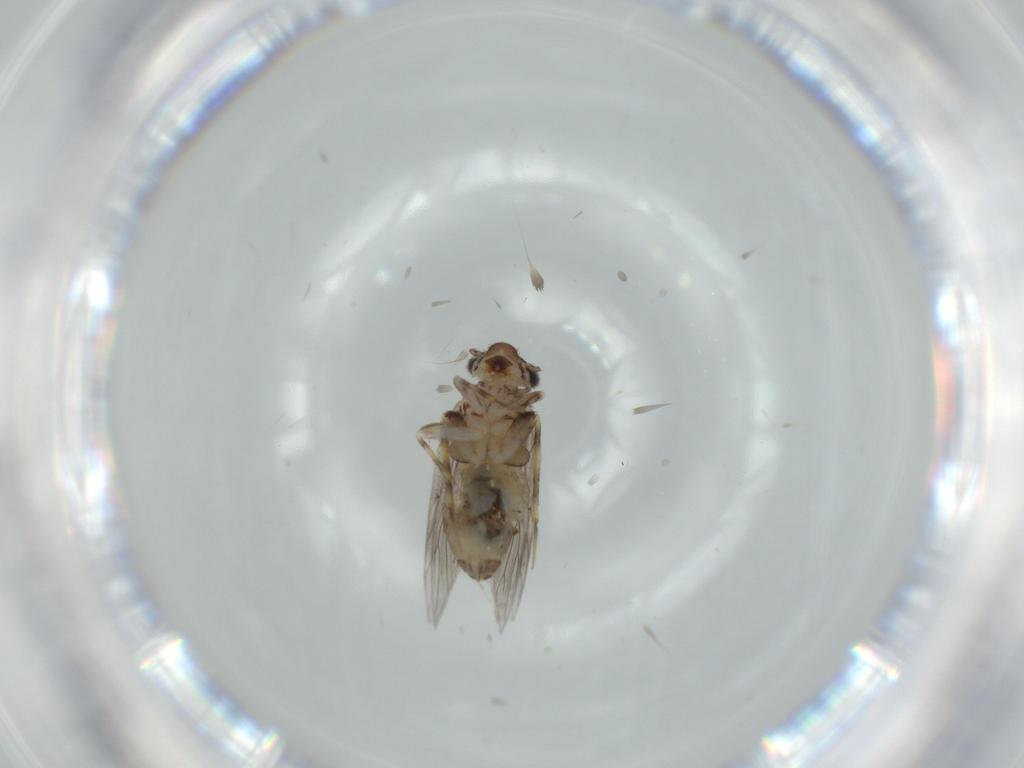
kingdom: Animalia
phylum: Arthropoda
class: Insecta
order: Psocodea
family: Lepidopsocidae
